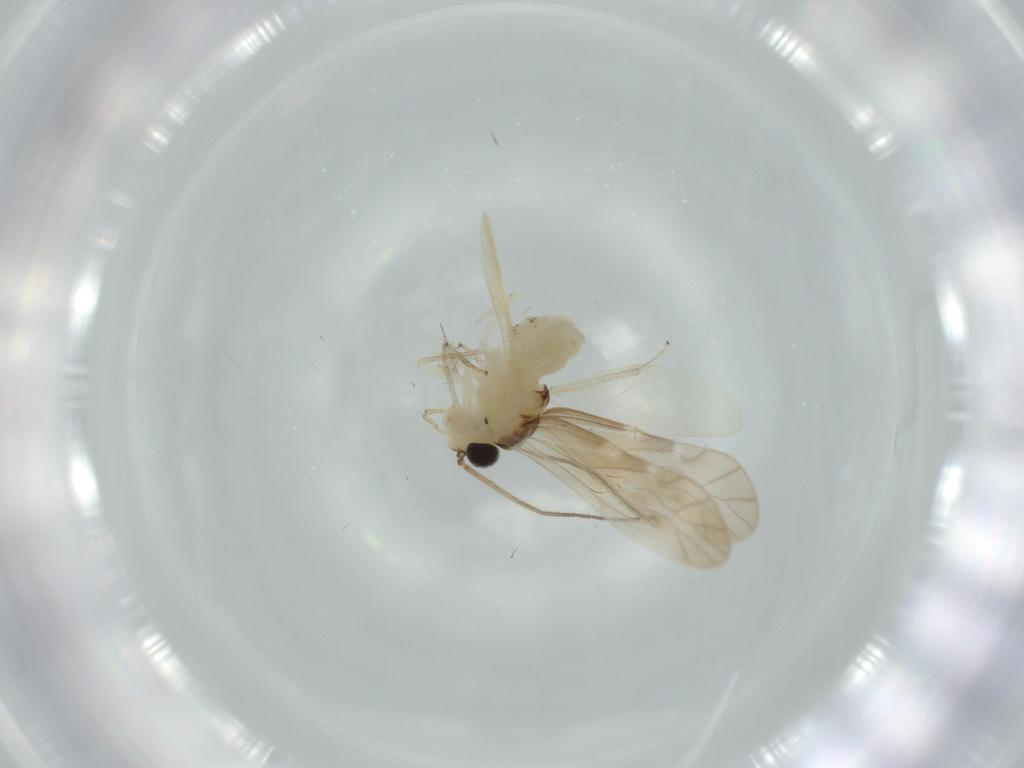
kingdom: Animalia
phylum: Arthropoda
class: Insecta
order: Psocodea
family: Caeciliusidae
